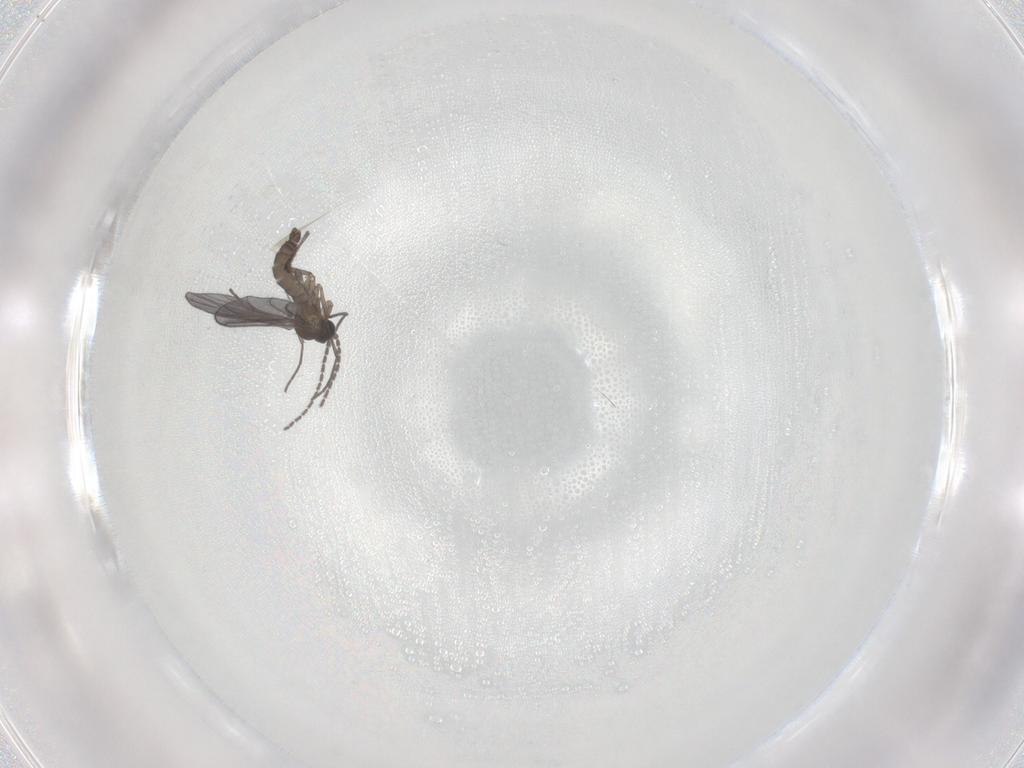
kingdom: Animalia
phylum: Arthropoda
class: Insecta
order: Diptera
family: Sciaridae
